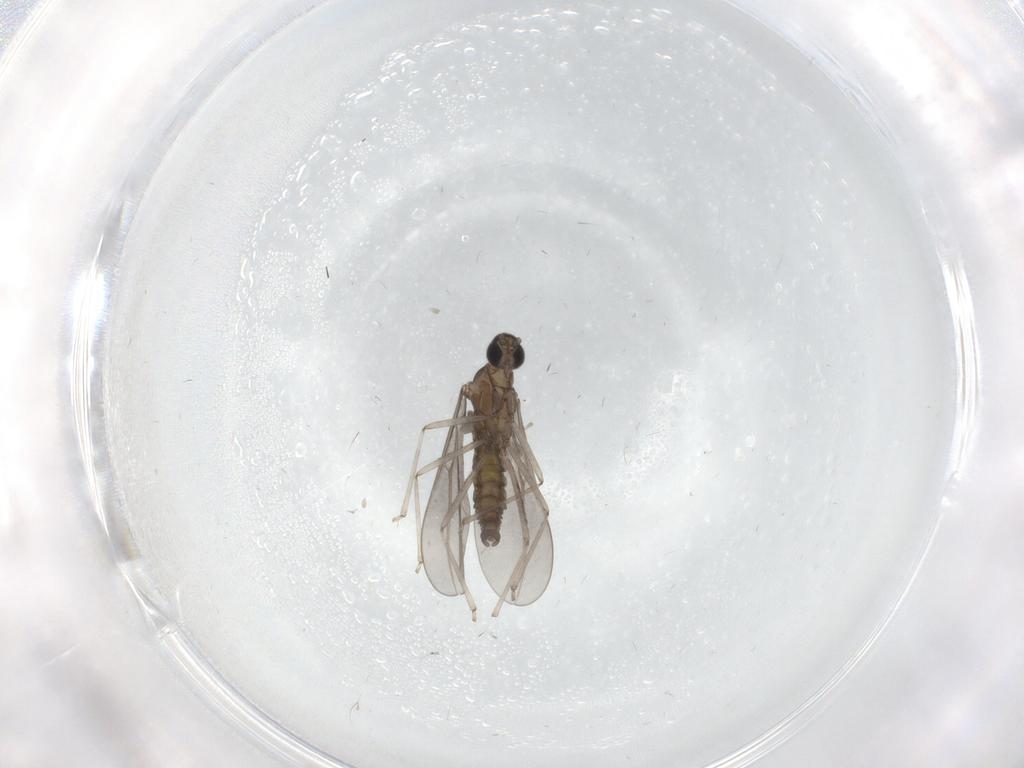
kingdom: Animalia
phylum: Arthropoda
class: Insecta
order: Diptera
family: Cecidomyiidae
